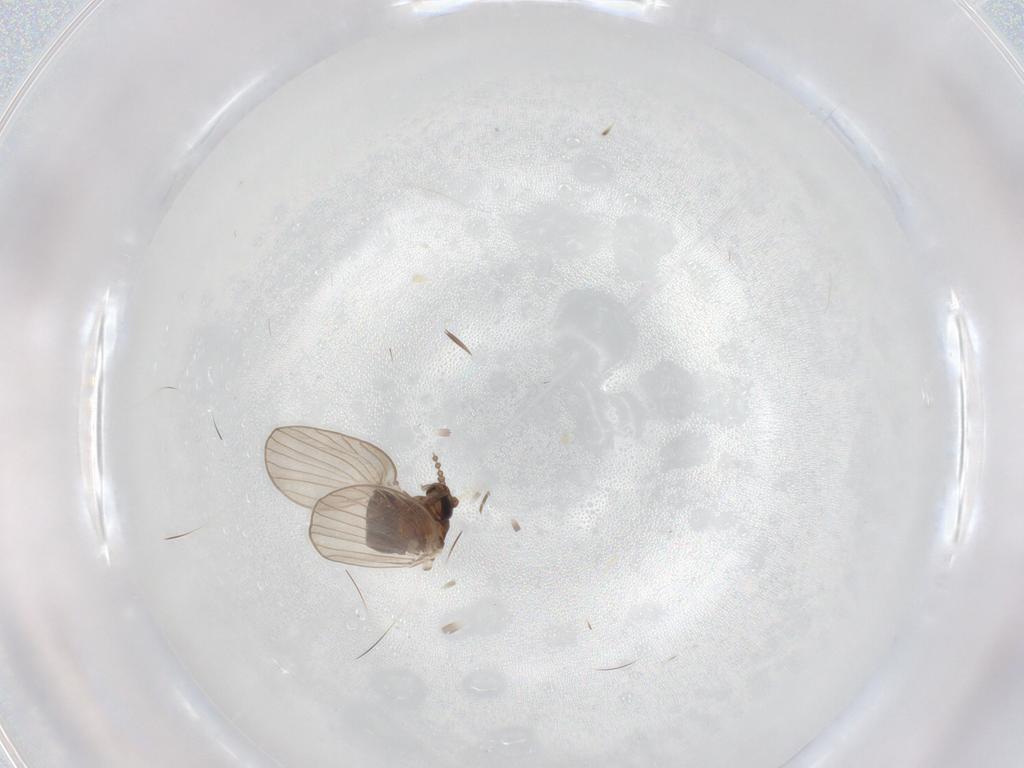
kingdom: Animalia
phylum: Arthropoda
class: Insecta
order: Diptera
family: Psychodidae
